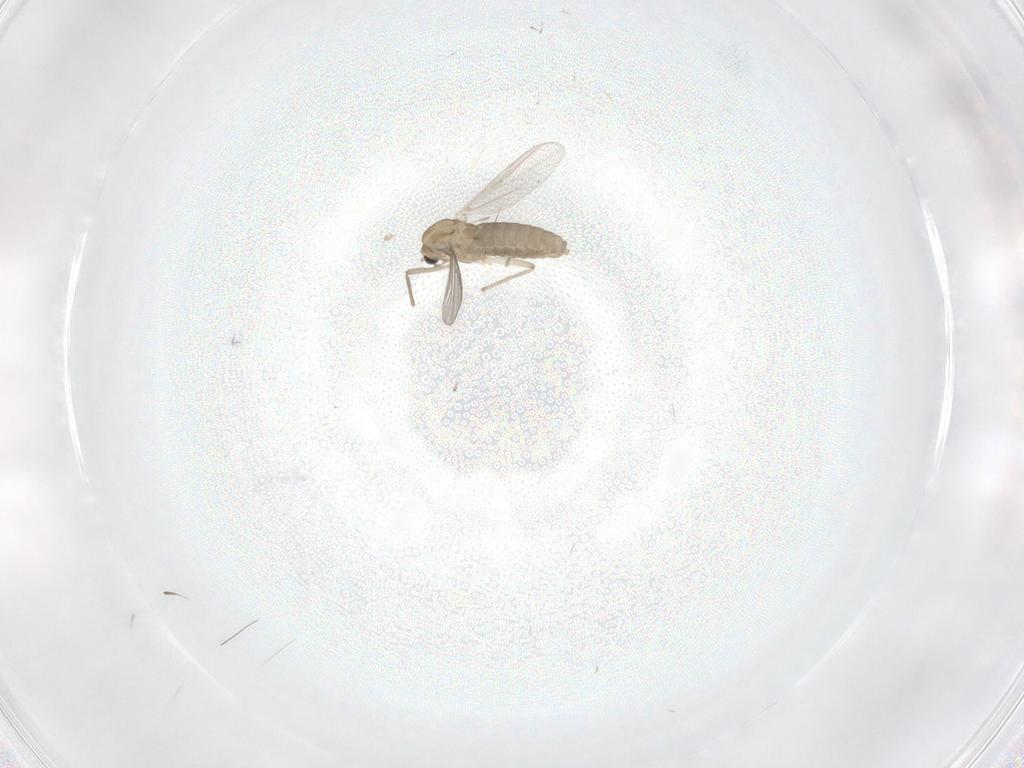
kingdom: Animalia
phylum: Arthropoda
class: Insecta
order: Diptera
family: Chironomidae
